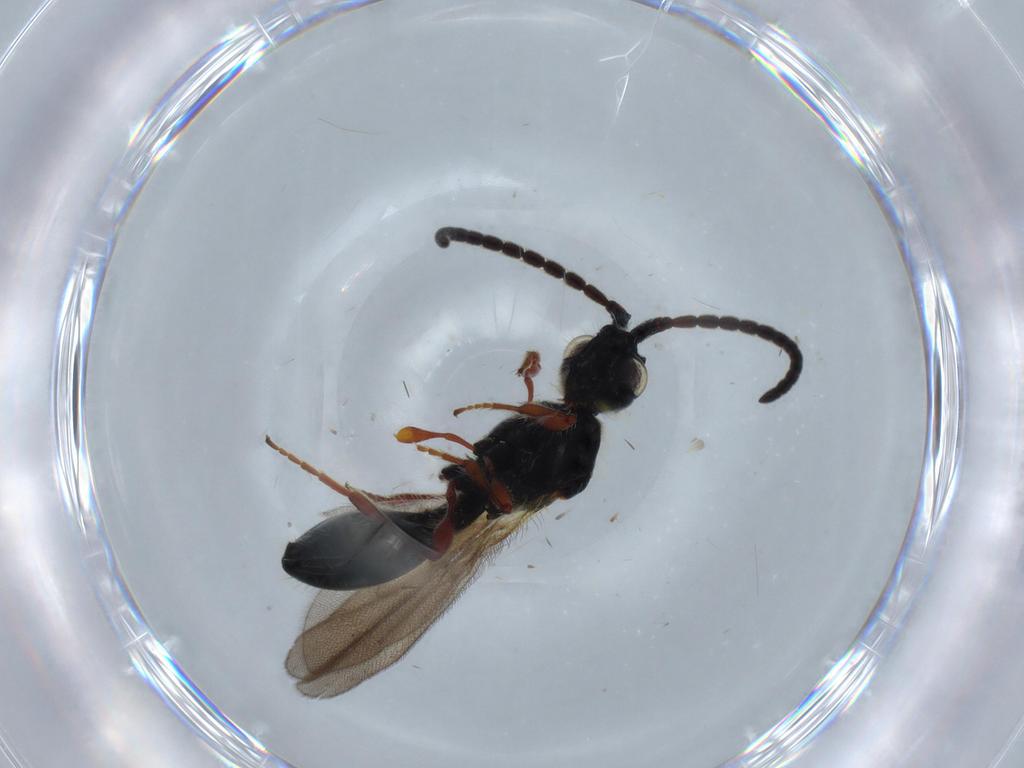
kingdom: Animalia
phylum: Arthropoda
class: Insecta
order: Hymenoptera
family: Diapriidae
